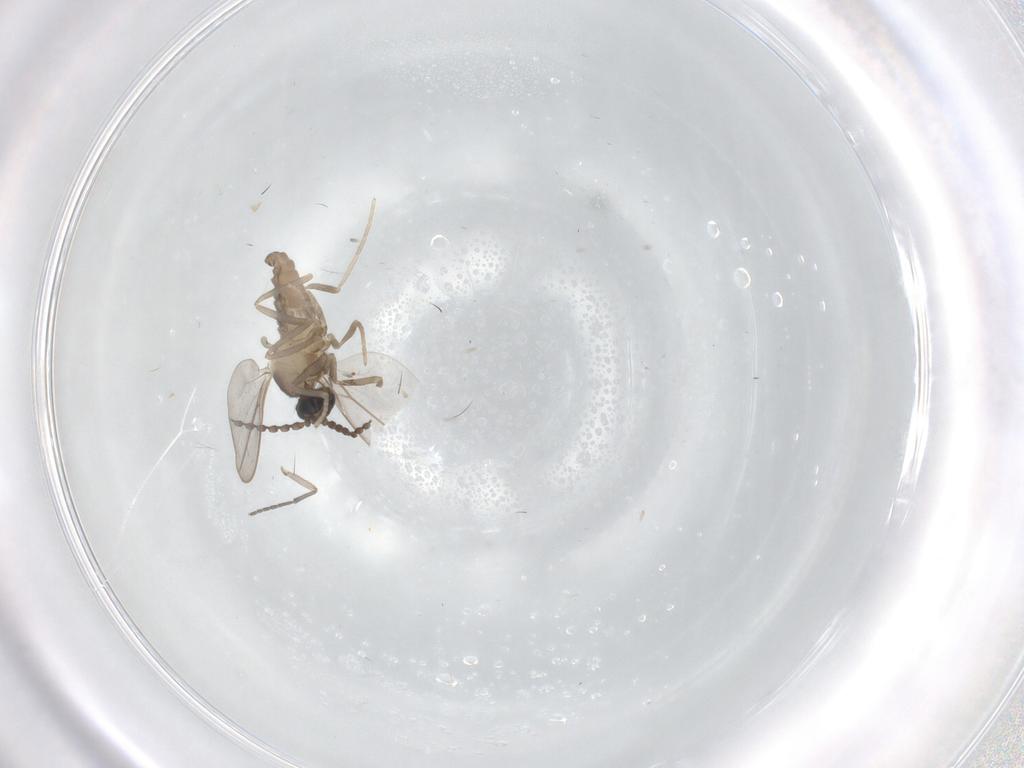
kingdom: Animalia
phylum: Arthropoda
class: Insecta
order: Diptera
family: Cecidomyiidae
